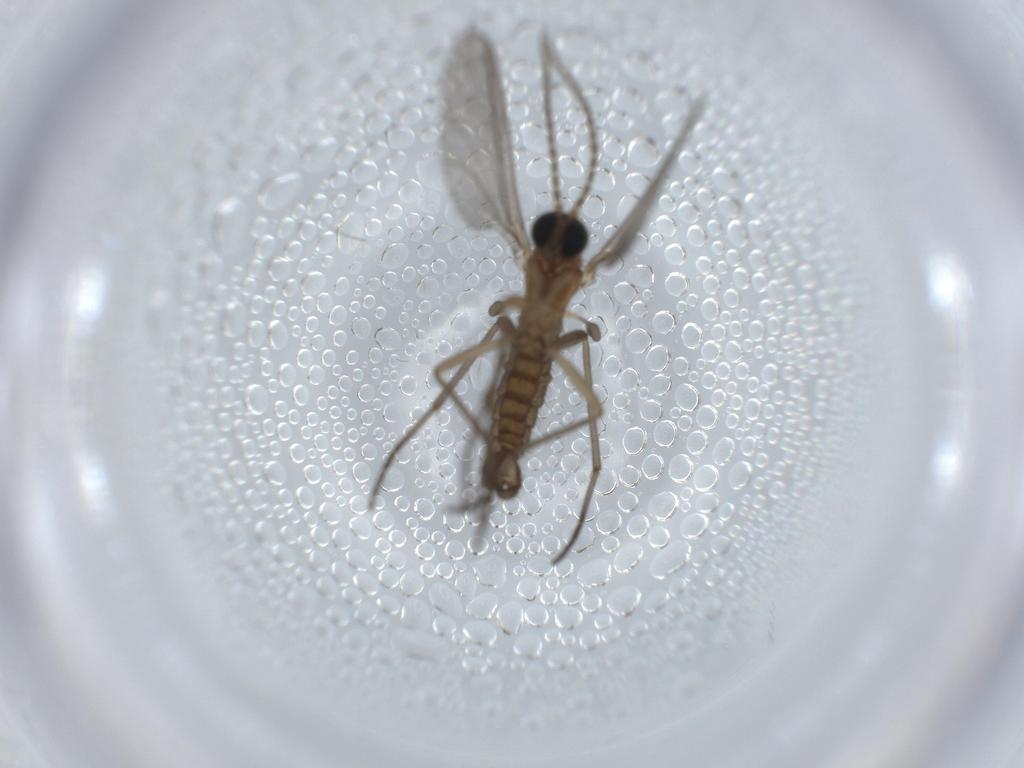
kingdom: Animalia
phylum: Arthropoda
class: Insecta
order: Diptera
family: Sciaridae
